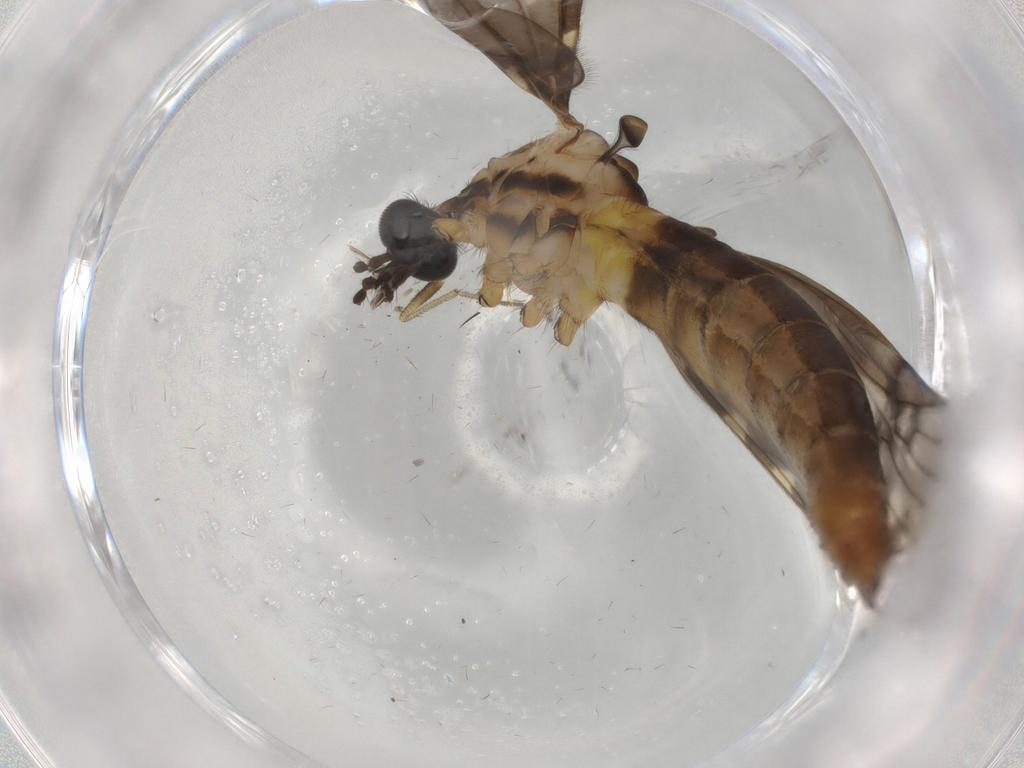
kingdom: Animalia
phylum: Arthropoda
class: Insecta
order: Diptera
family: Limoniidae
